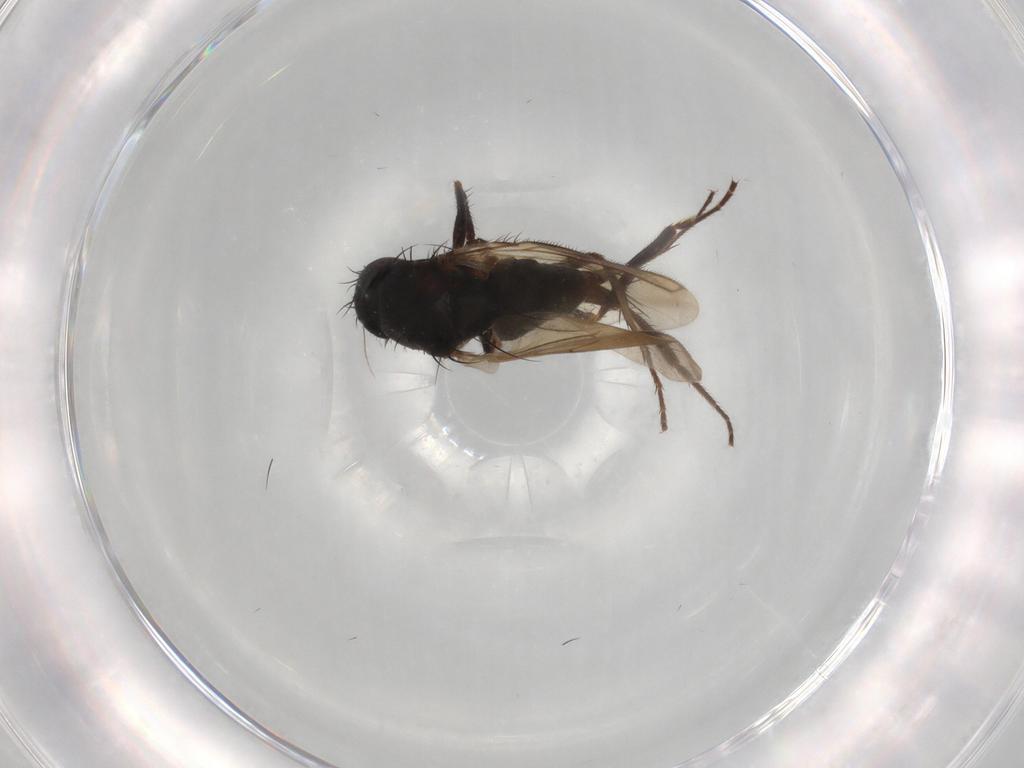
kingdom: Animalia
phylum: Arthropoda
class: Insecta
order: Diptera
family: Sphaeroceridae
